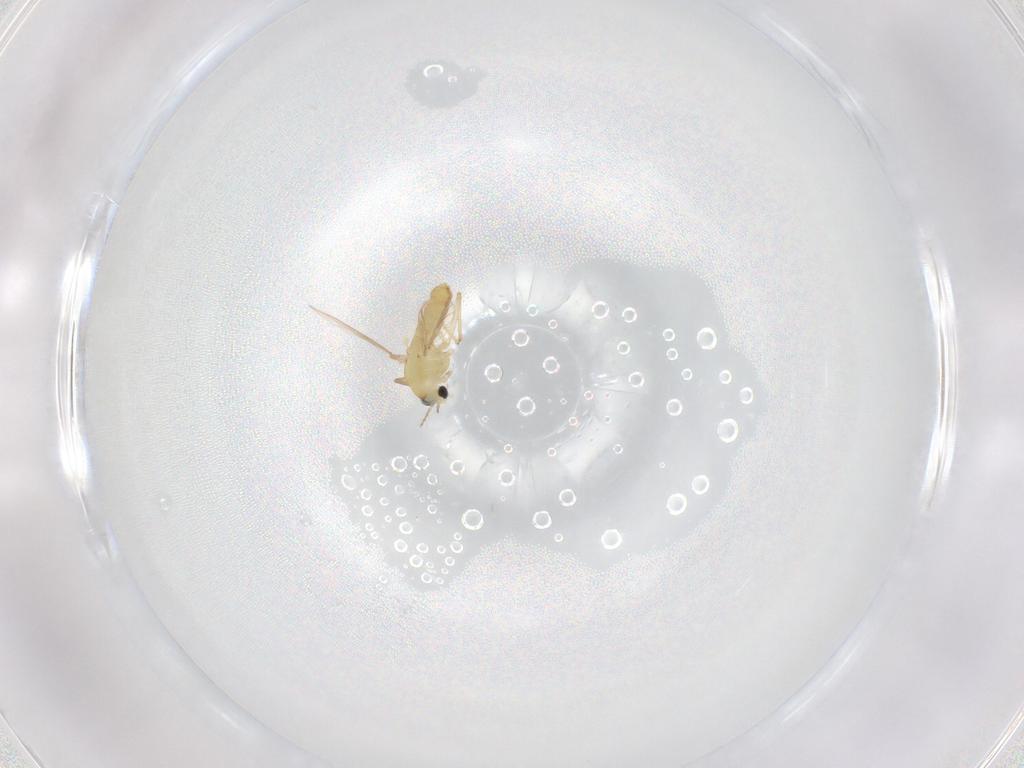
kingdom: Animalia
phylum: Arthropoda
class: Insecta
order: Diptera
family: Chironomidae
